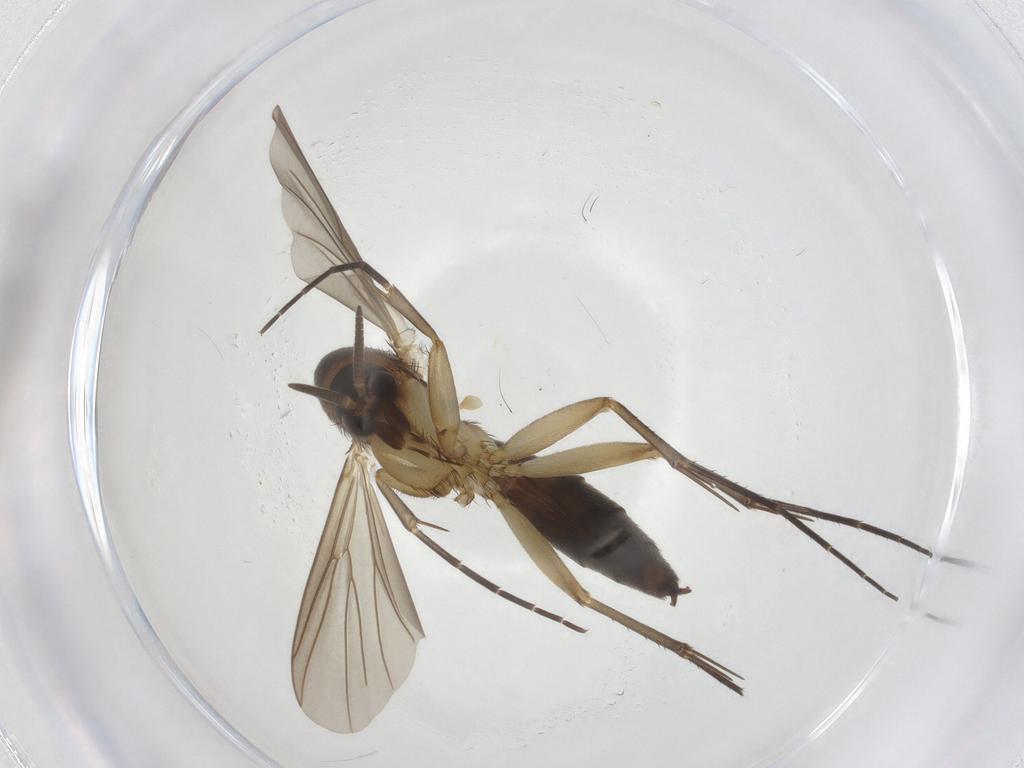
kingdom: Animalia
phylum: Arthropoda
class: Insecta
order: Diptera
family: Mycetophilidae
